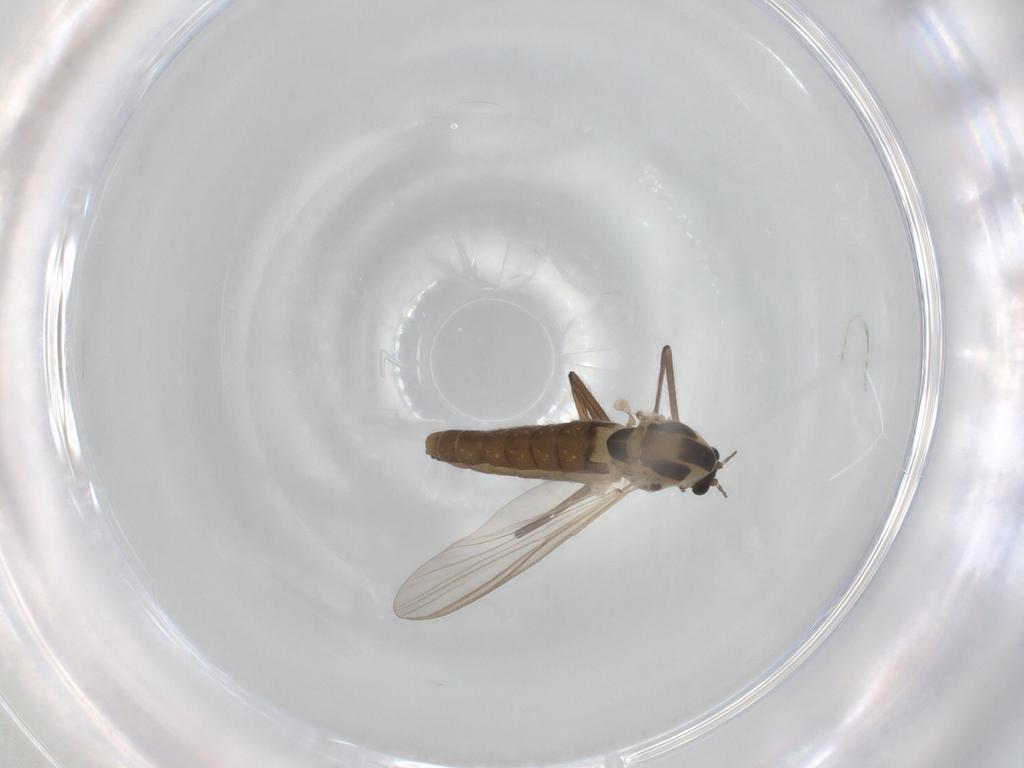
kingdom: Animalia
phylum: Arthropoda
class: Insecta
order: Diptera
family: Chironomidae
